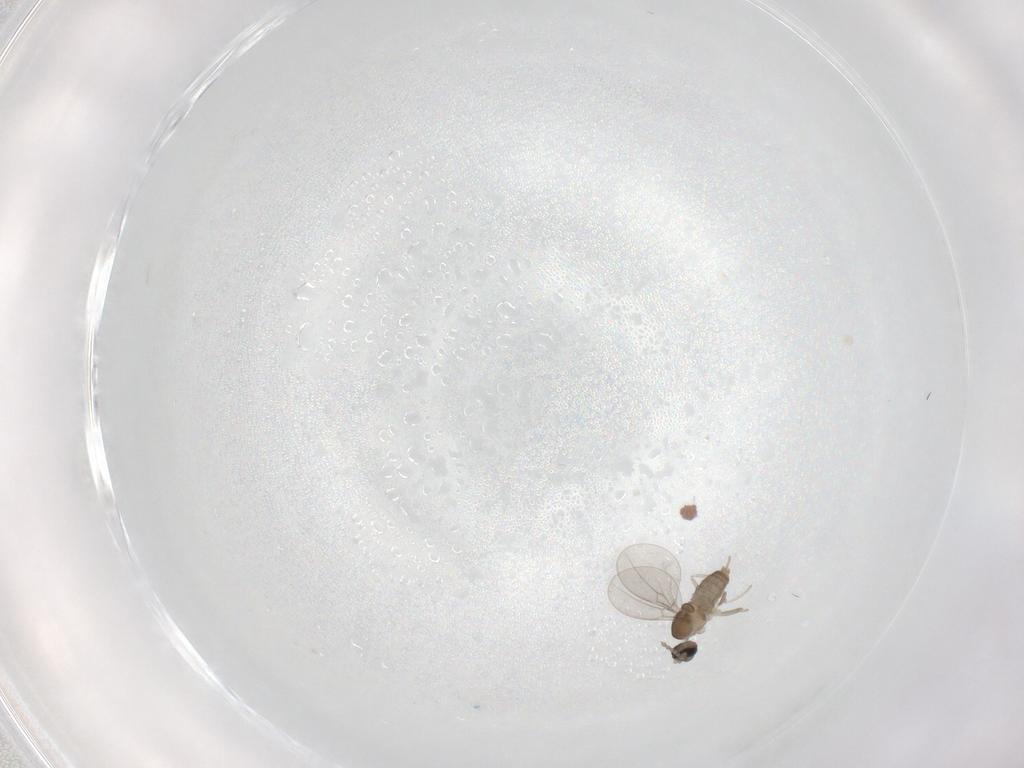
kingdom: Animalia
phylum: Arthropoda
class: Insecta
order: Diptera
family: Cecidomyiidae
